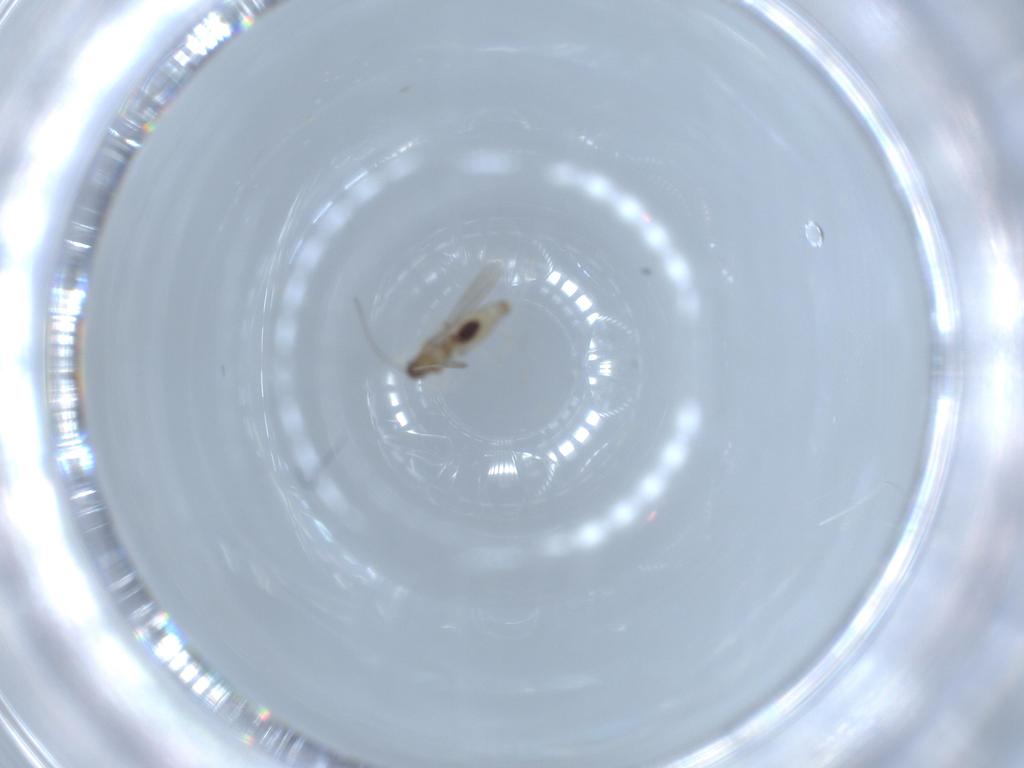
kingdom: Animalia
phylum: Arthropoda
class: Insecta
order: Diptera
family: Cecidomyiidae
